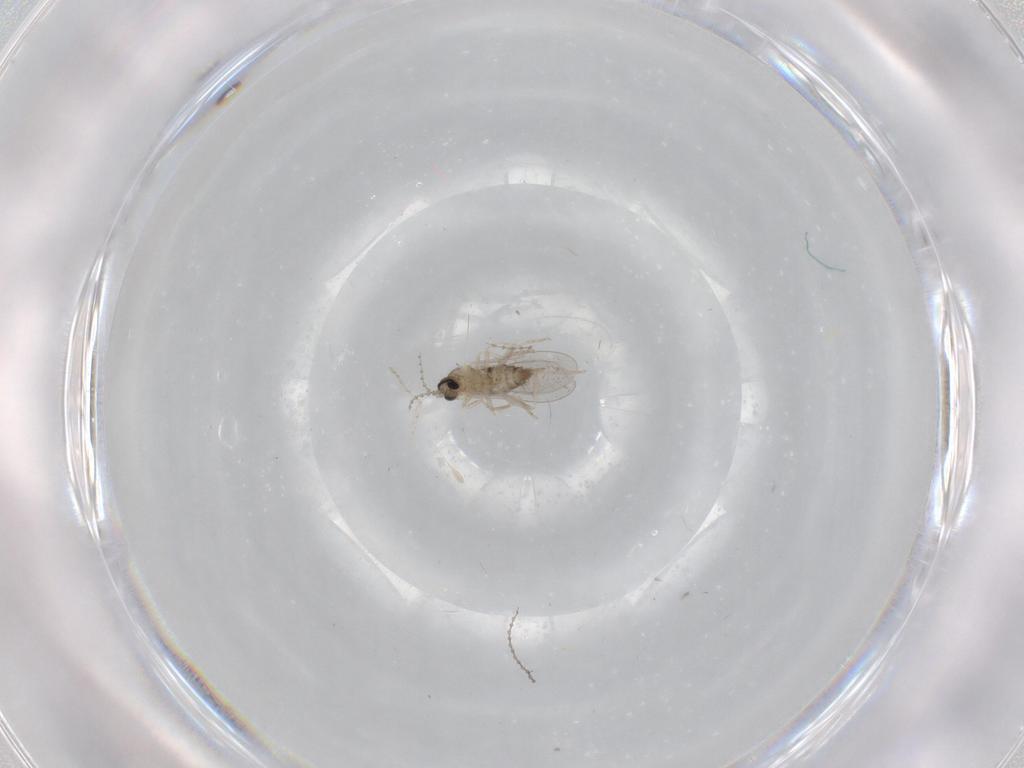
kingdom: Animalia
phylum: Arthropoda
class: Insecta
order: Diptera
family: Cecidomyiidae
